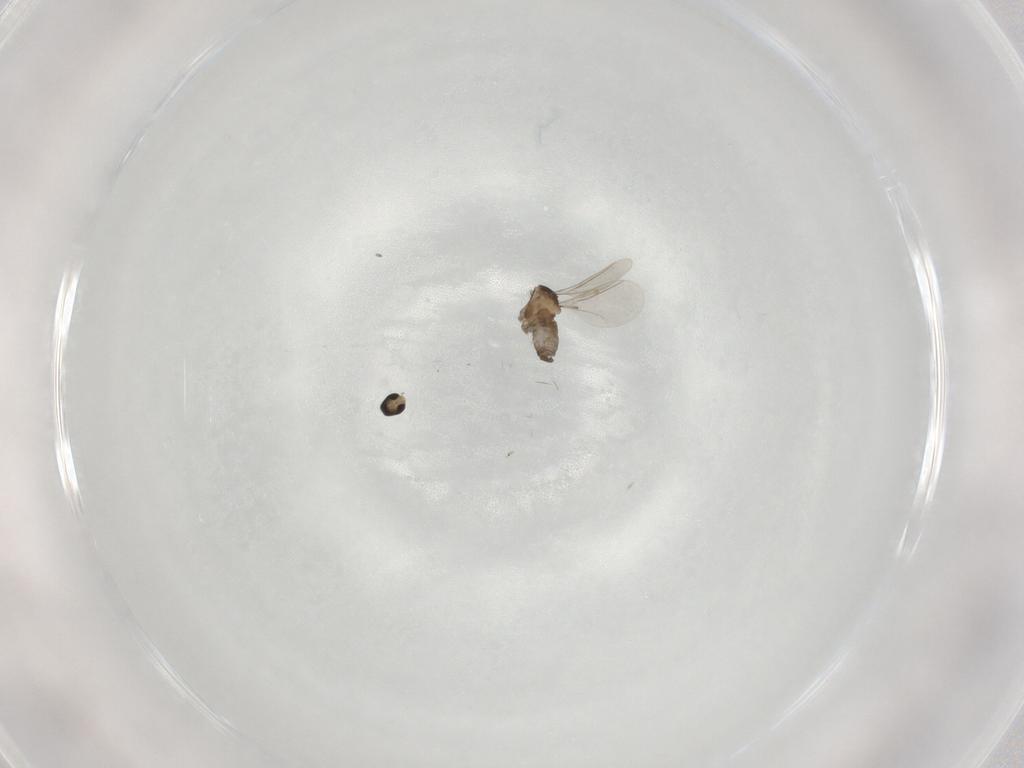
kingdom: Animalia
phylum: Arthropoda
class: Insecta
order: Diptera
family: Cecidomyiidae
